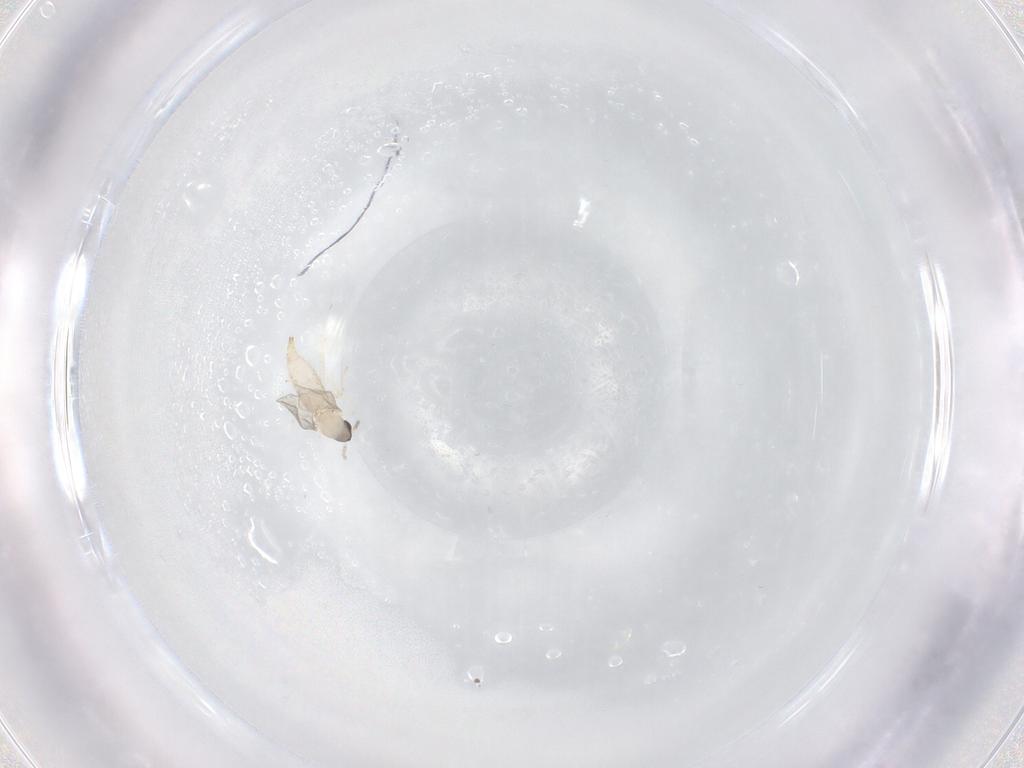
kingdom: Animalia
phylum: Arthropoda
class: Insecta
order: Diptera
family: Cecidomyiidae
